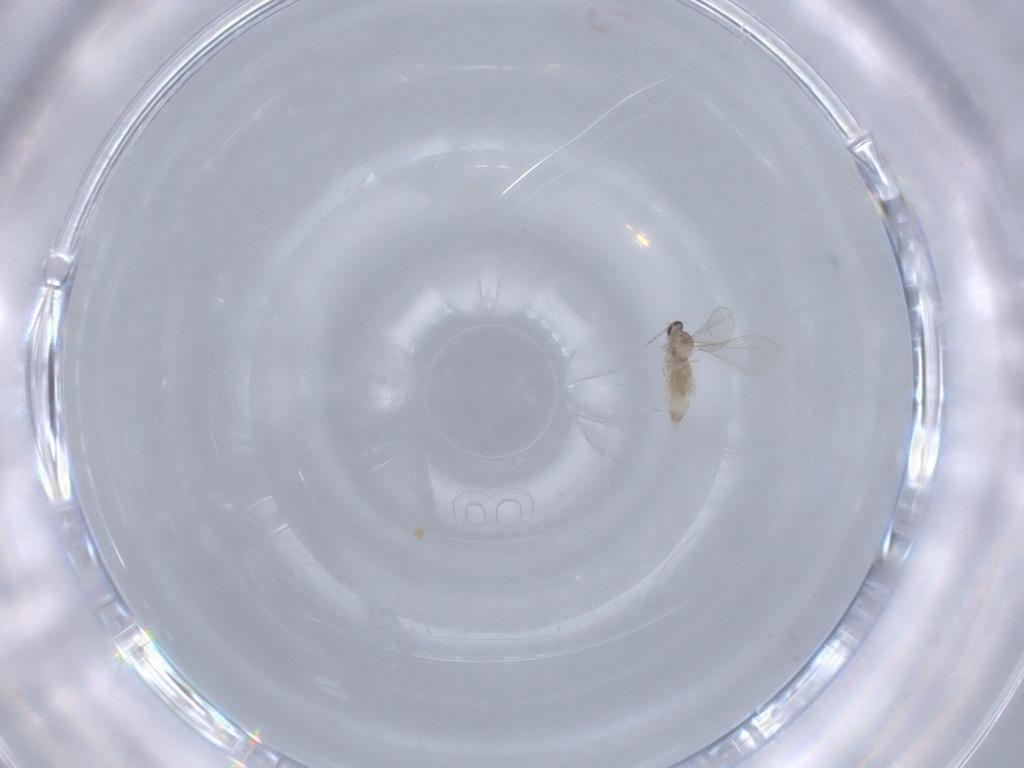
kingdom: Animalia
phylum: Arthropoda
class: Insecta
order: Diptera
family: Cecidomyiidae
